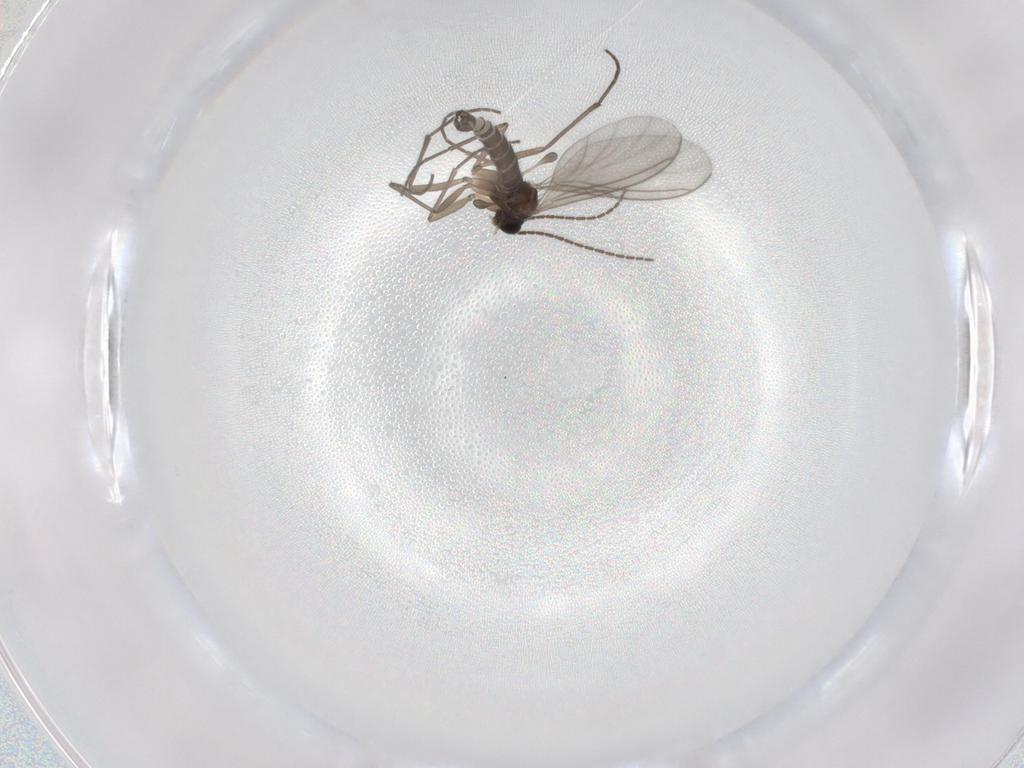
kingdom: Animalia
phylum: Arthropoda
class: Insecta
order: Diptera
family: Sciaridae
